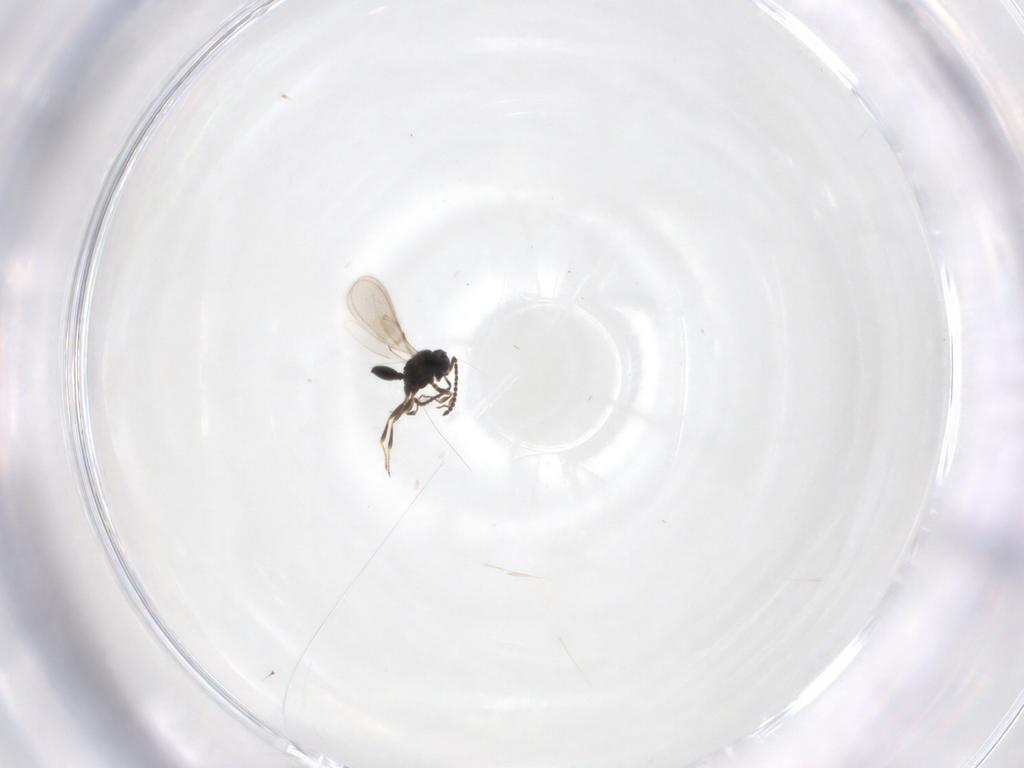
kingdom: Animalia
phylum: Arthropoda
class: Insecta
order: Hymenoptera
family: Scelionidae
